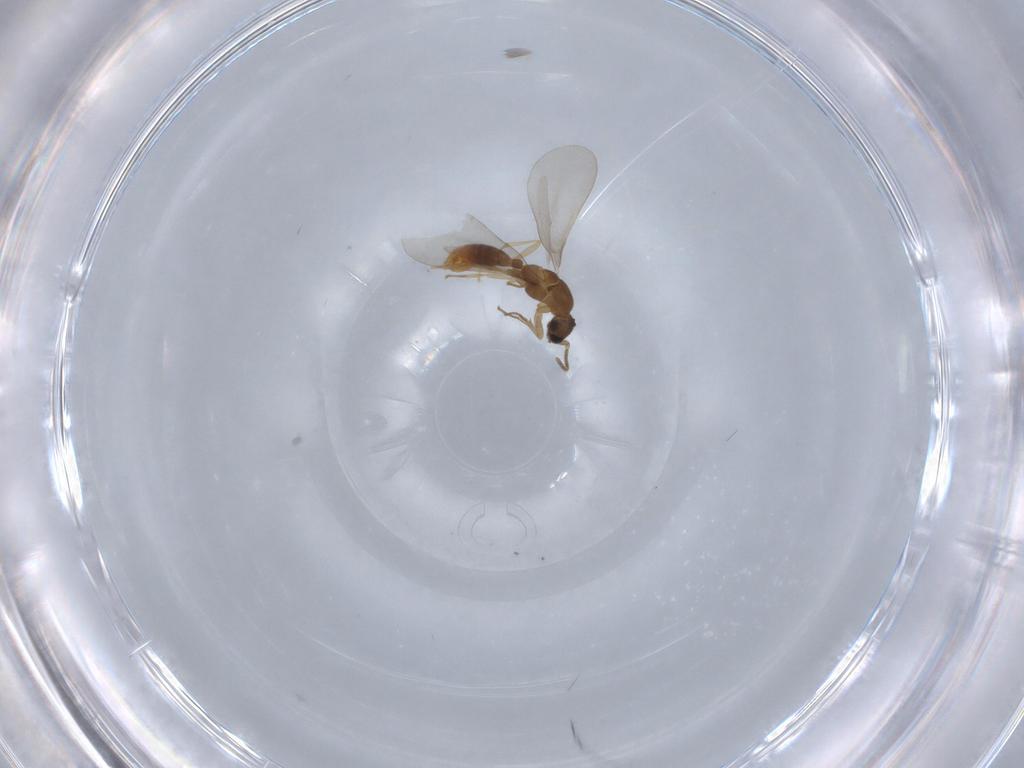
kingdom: Animalia
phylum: Arthropoda
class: Insecta
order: Hymenoptera
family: Formicidae
